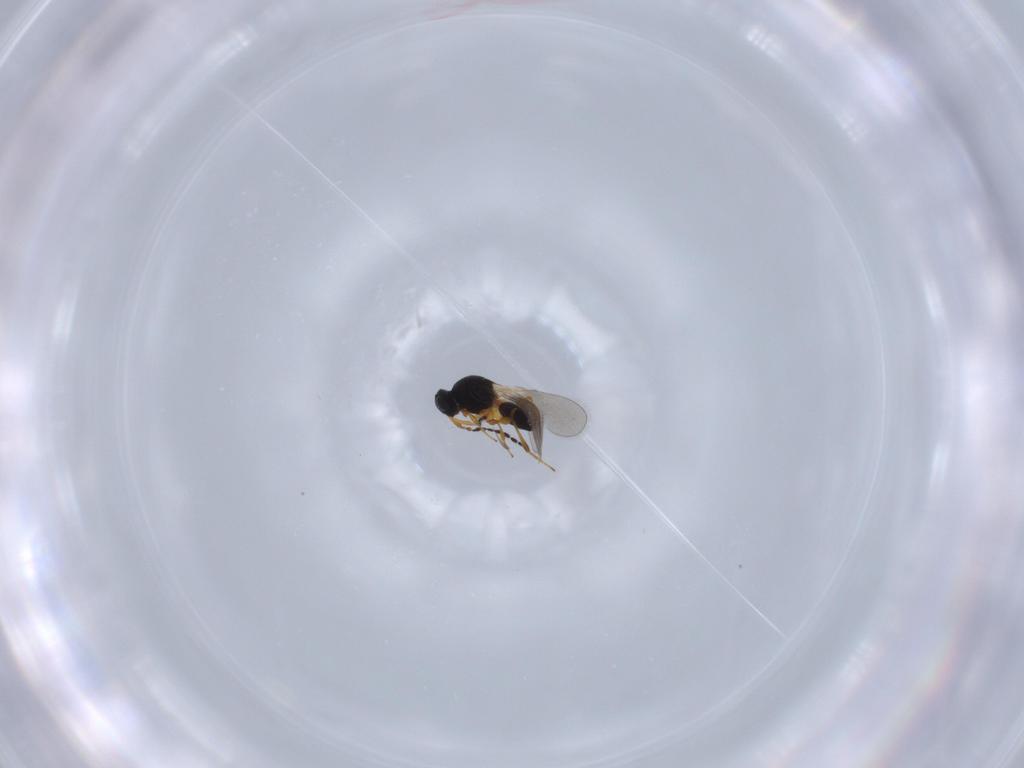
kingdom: Animalia
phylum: Arthropoda
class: Insecta
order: Hymenoptera
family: Platygastridae
